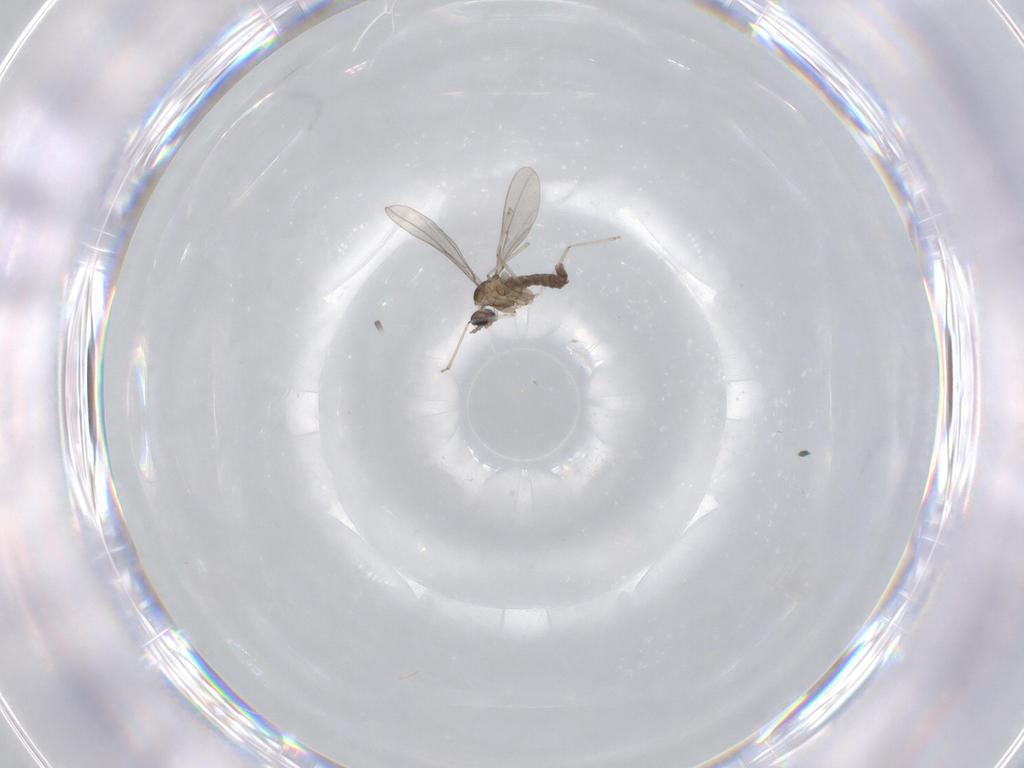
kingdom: Animalia
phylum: Arthropoda
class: Insecta
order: Diptera
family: Cecidomyiidae
